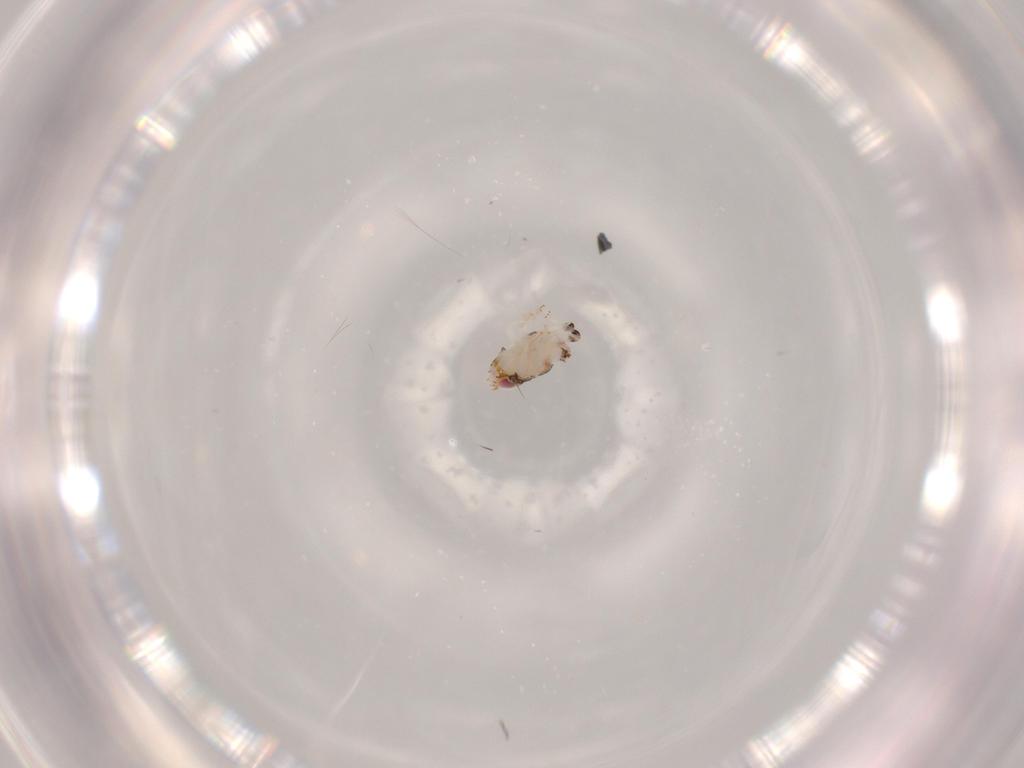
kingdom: Animalia
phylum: Arthropoda
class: Insecta
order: Hemiptera
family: Nogodinidae
